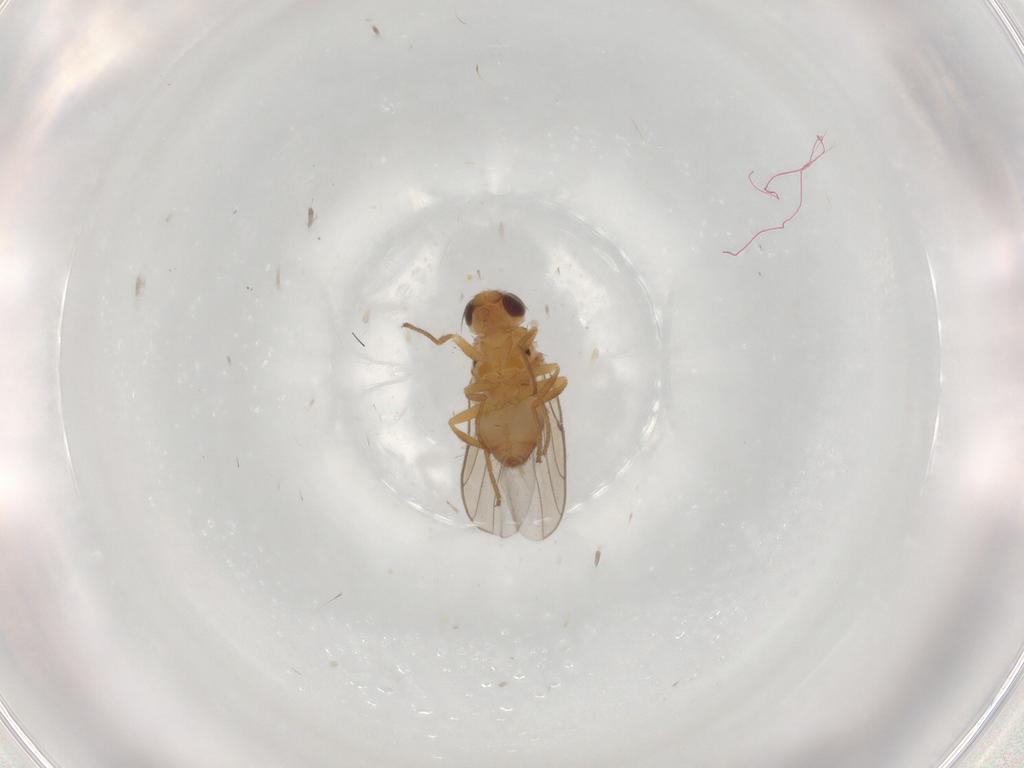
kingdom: Animalia
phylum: Arthropoda
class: Insecta
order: Diptera
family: Chloropidae
